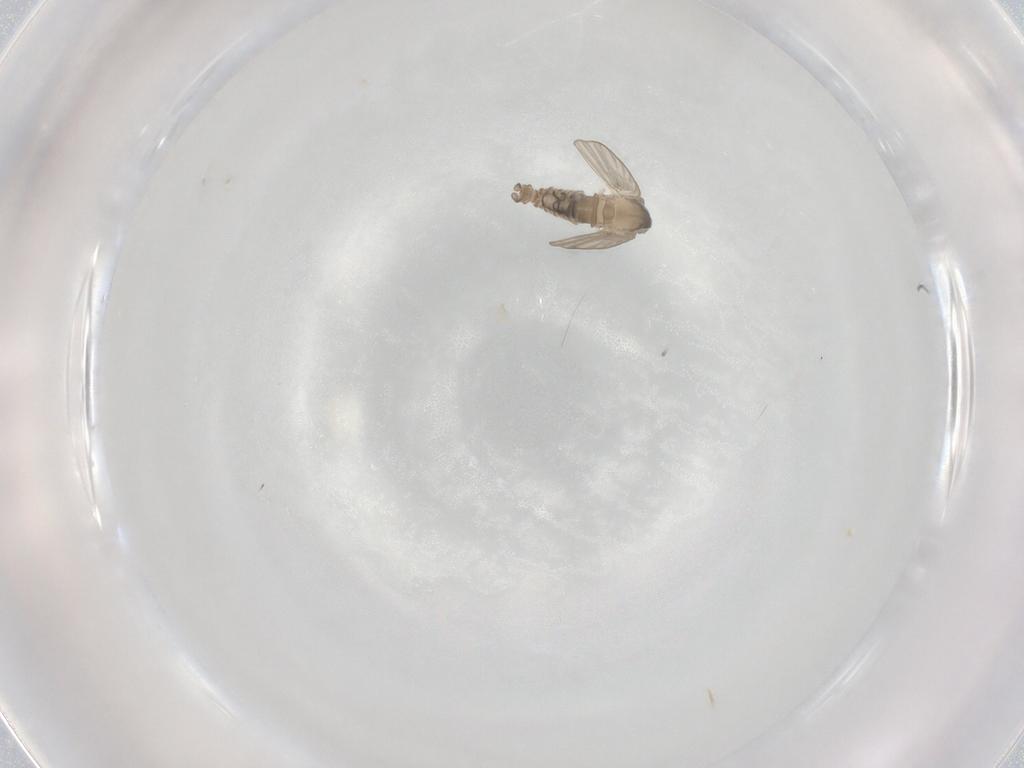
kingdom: Animalia
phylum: Arthropoda
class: Insecta
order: Diptera
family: Psychodidae
